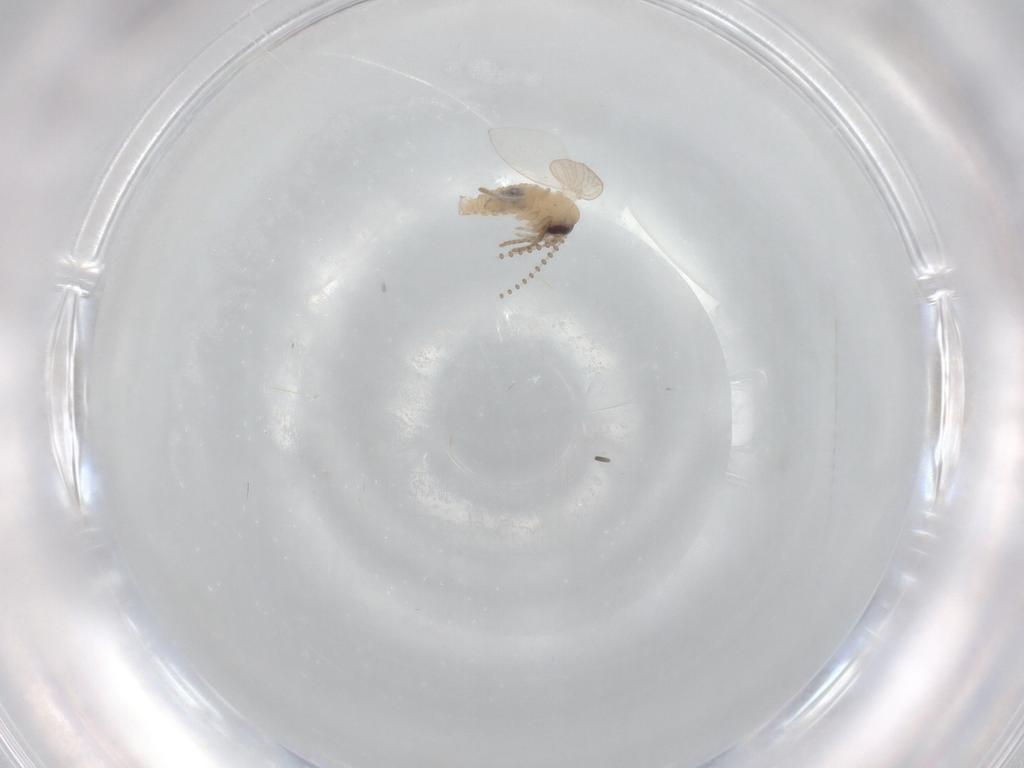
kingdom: Animalia
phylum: Arthropoda
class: Insecta
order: Diptera
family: Psychodidae
